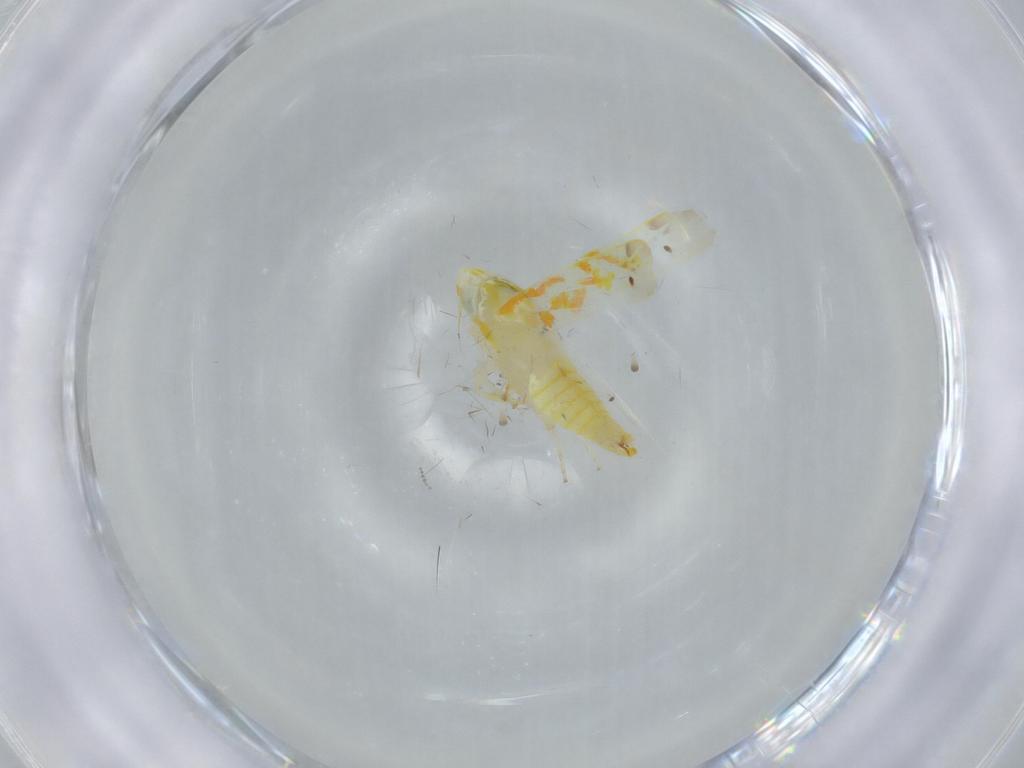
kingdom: Animalia
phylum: Arthropoda
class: Insecta
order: Hemiptera
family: Cicadellidae
